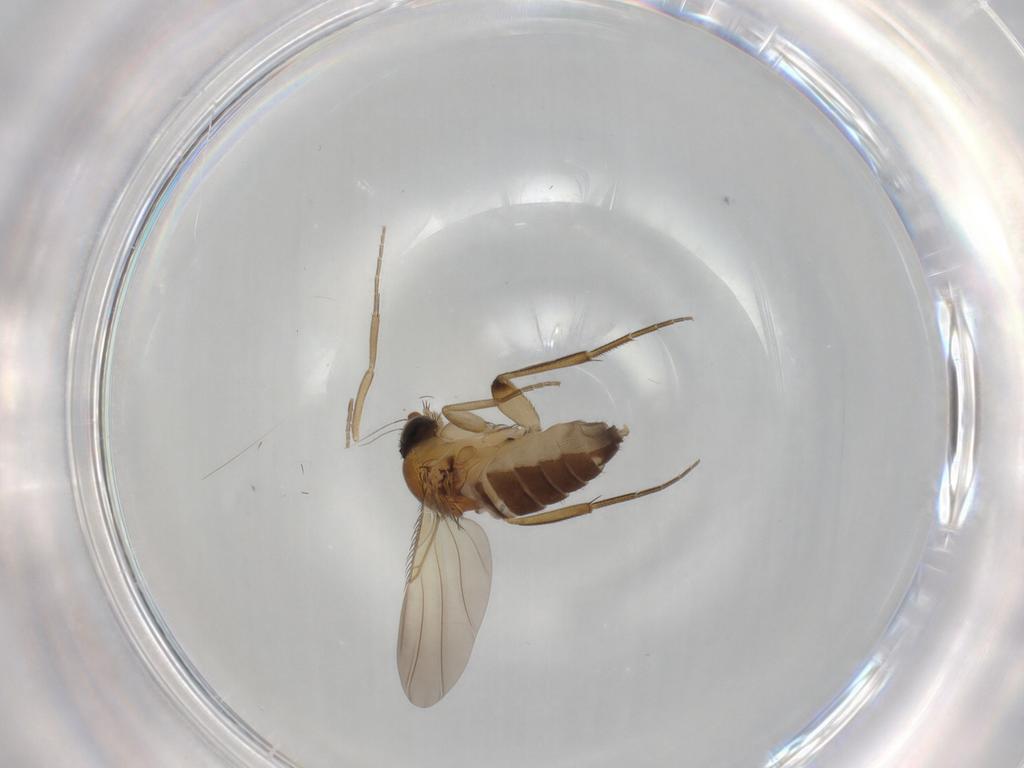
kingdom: Animalia
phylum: Arthropoda
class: Insecta
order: Diptera
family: Phoridae
